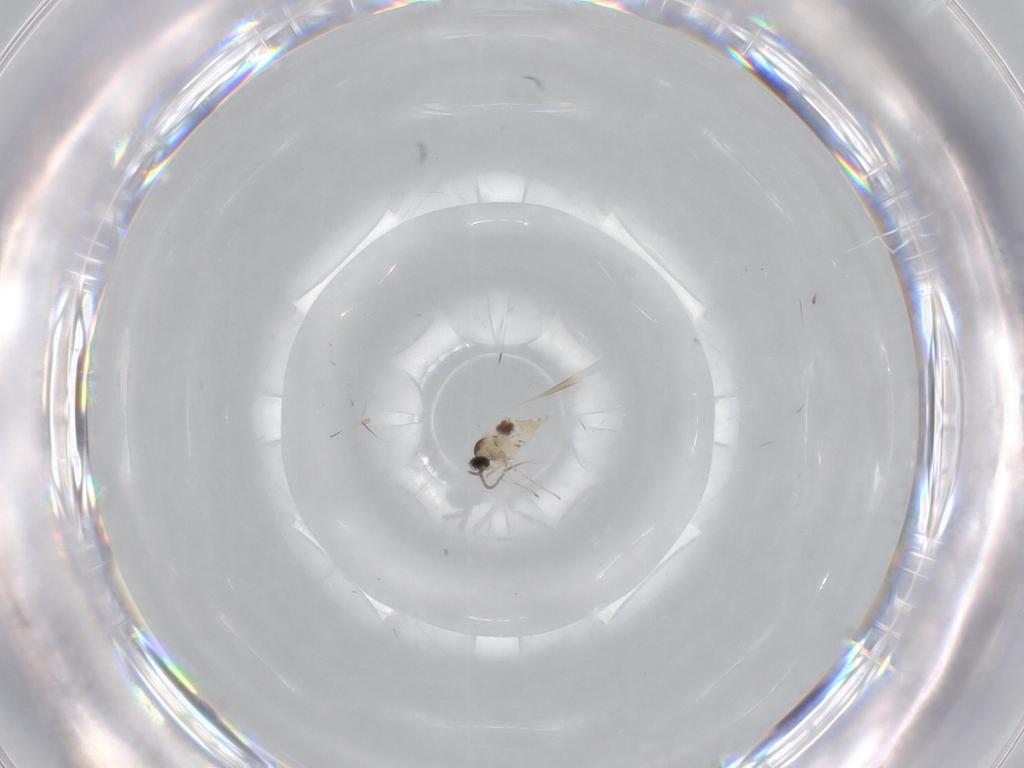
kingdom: Animalia
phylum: Arthropoda
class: Insecta
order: Diptera
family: Cecidomyiidae
